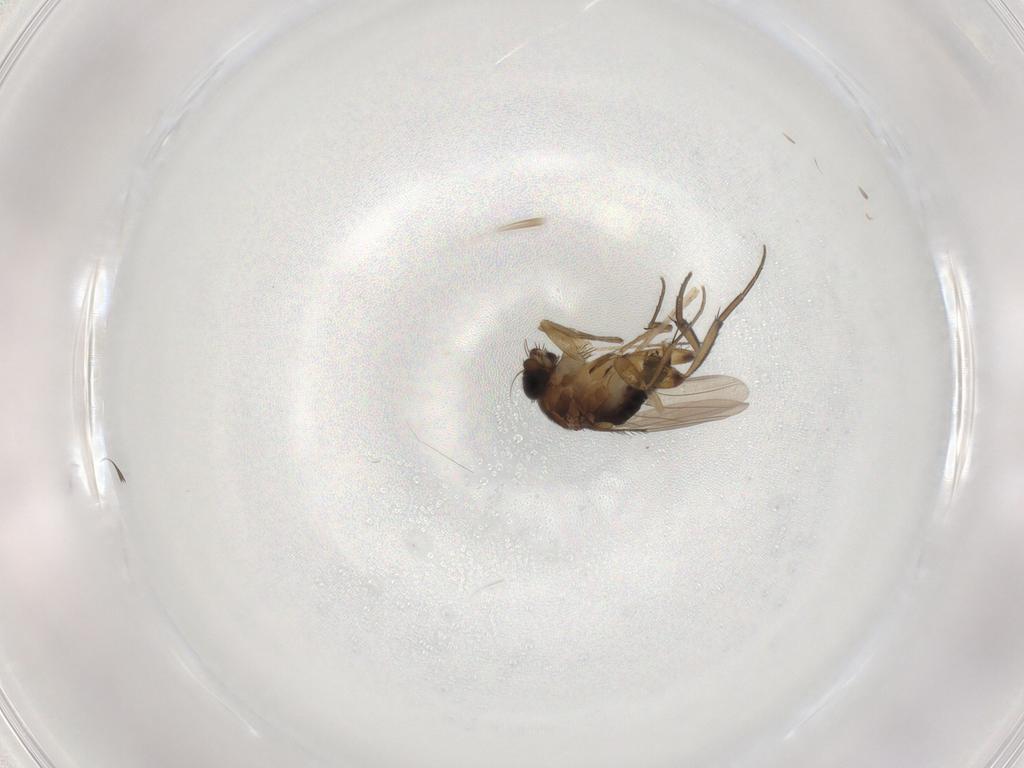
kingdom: Animalia
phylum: Arthropoda
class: Insecta
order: Diptera
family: Phoridae
